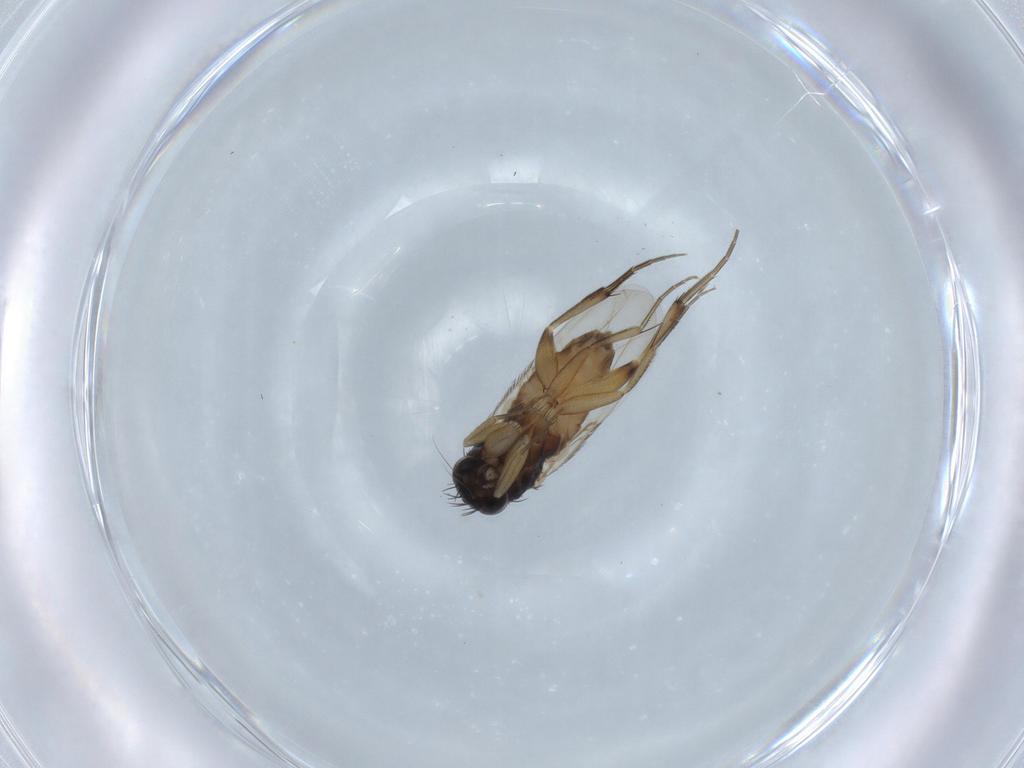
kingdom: Animalia
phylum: Arthropoda
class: Insecta
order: Diptera
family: Phoridae
